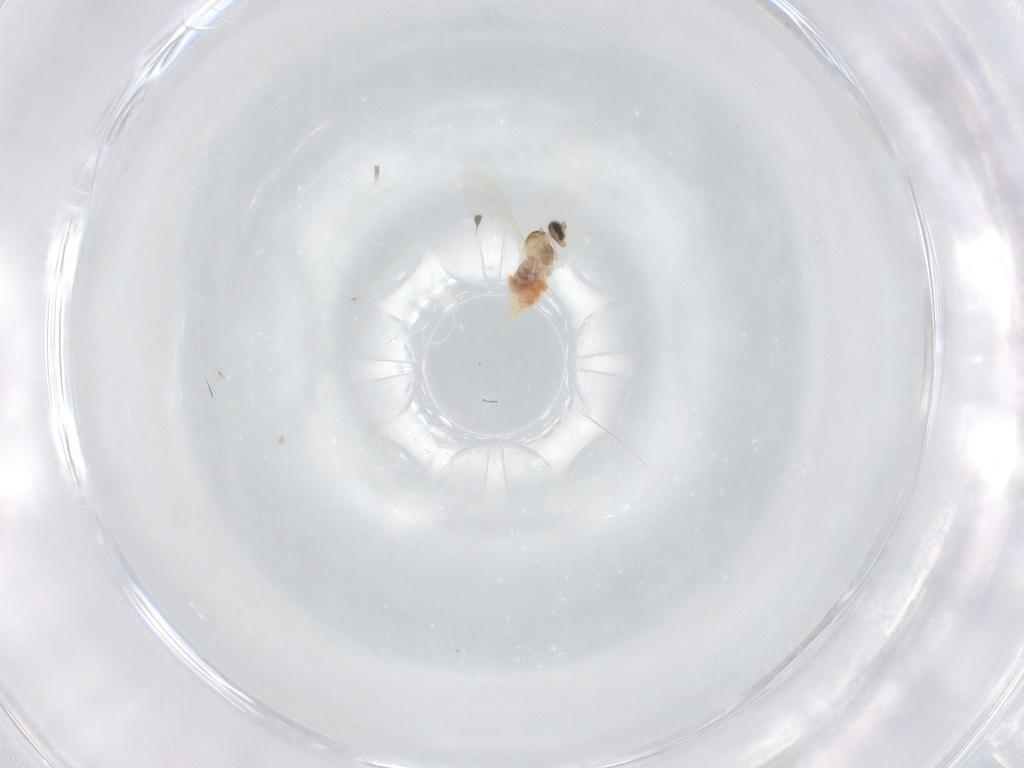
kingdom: Animalia
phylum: Arthropoda
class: Insecta
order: Diptera
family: Cecidomyiidae
